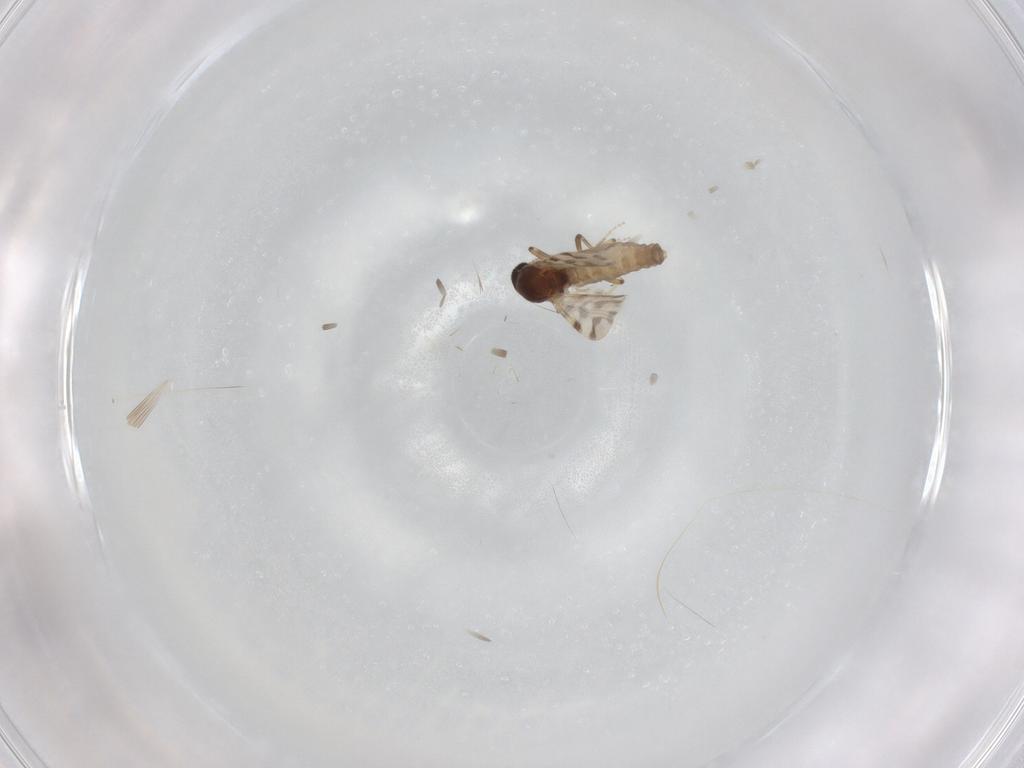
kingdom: Animalia
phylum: Arthropoda
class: Insecta
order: Diptera
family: Ceratopogonidae
